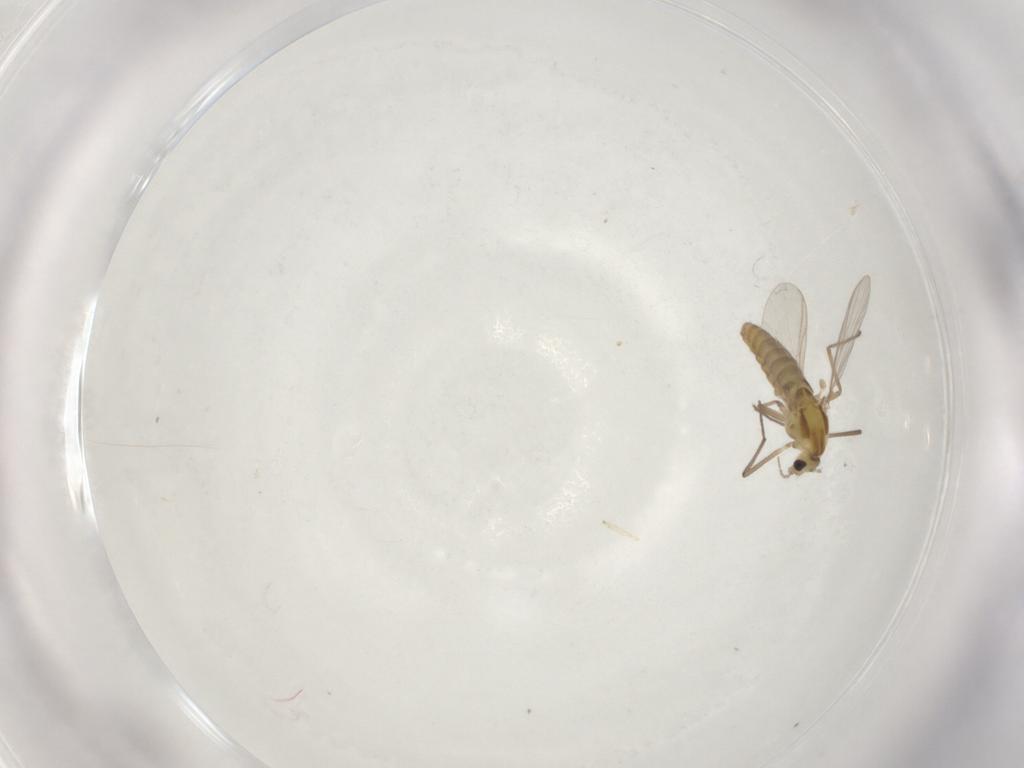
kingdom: Animalia
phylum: Arthropoda
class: Insecta
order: Diptera
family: Chironomidae
